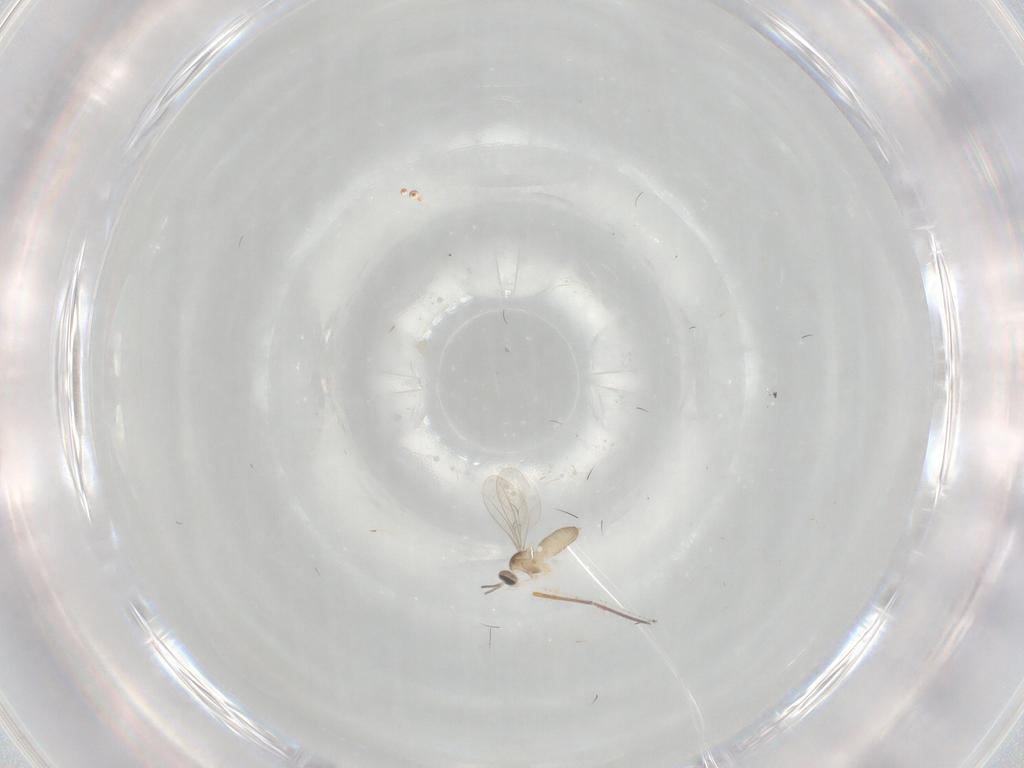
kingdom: Animalia
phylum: Arthropoda
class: Insecta
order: Diptera
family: Cecidomyiidae
